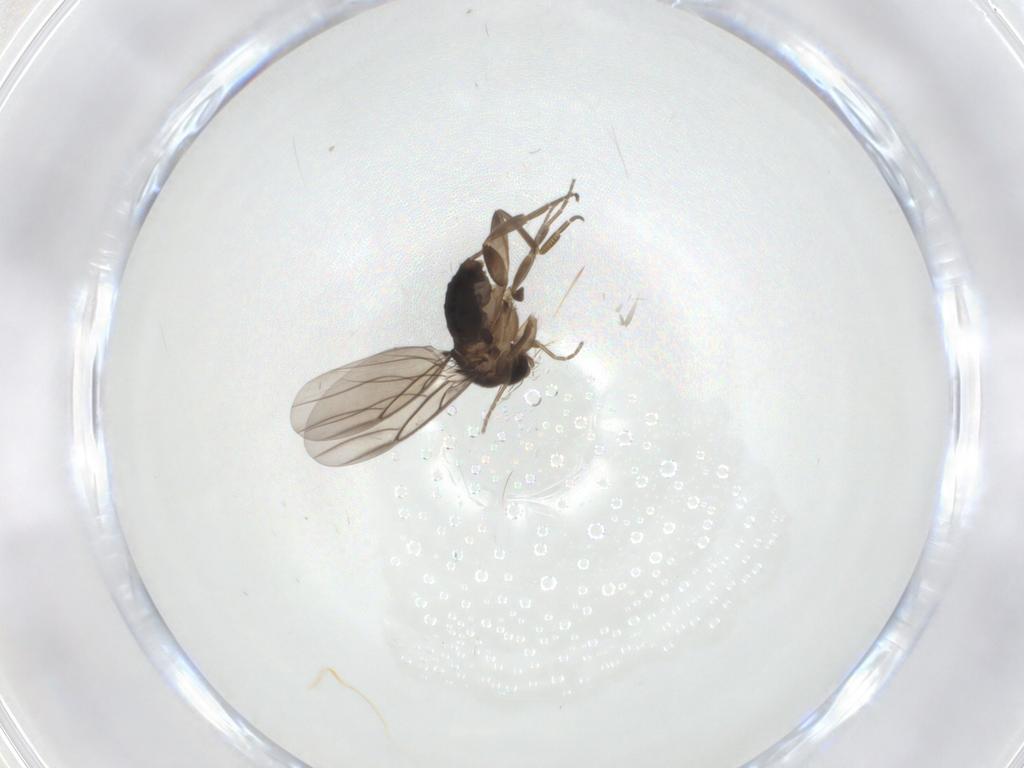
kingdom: Animalia
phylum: Arthropoda
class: Insecta
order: Diptera
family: Phoridae
